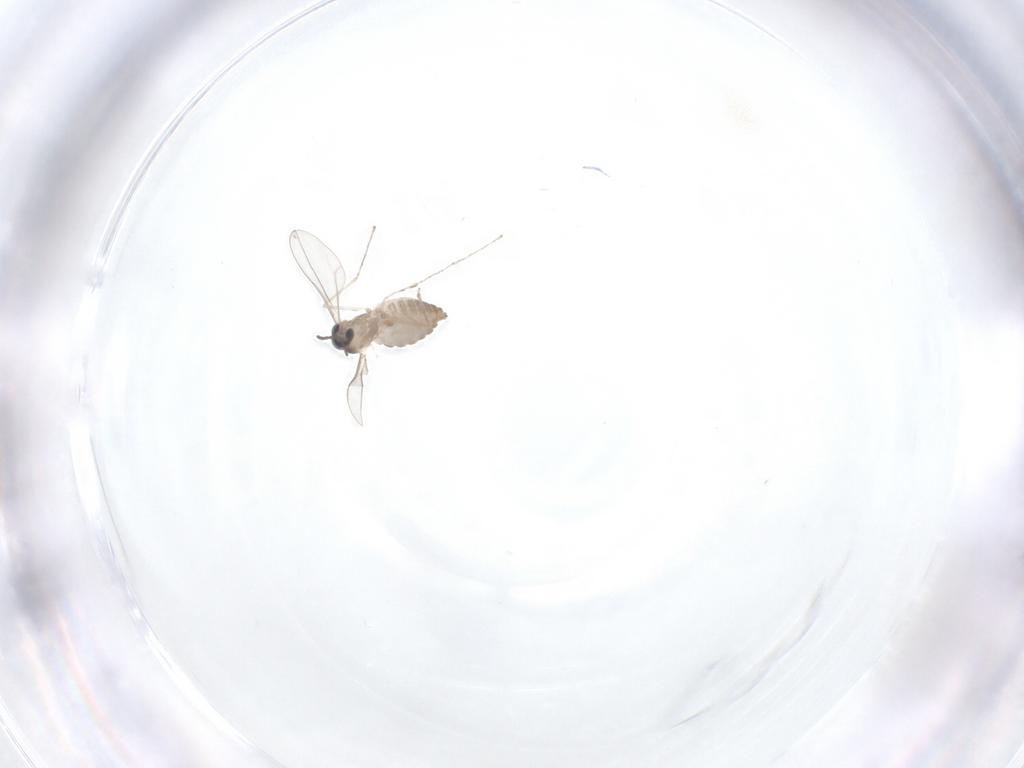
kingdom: Animalia
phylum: Arthropoda
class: Insecta
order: Diptera
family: Cecidomyiidae
